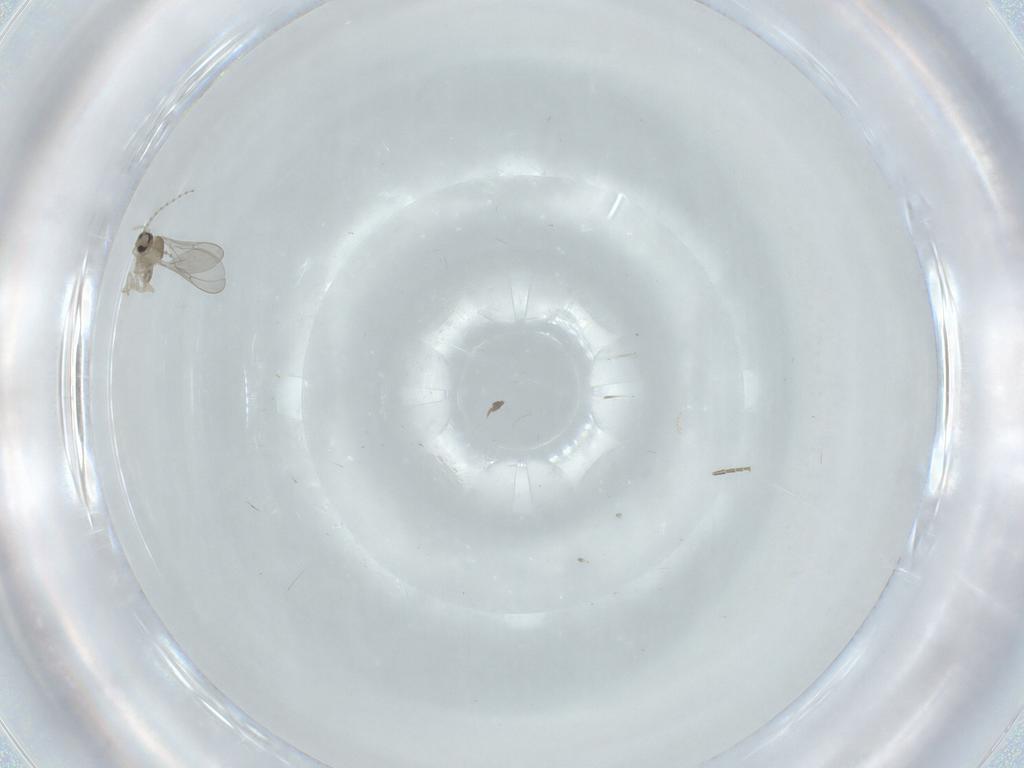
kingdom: Animalia
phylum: Arthropoda
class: Insecta
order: Diptera
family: Cecidomyiidae
